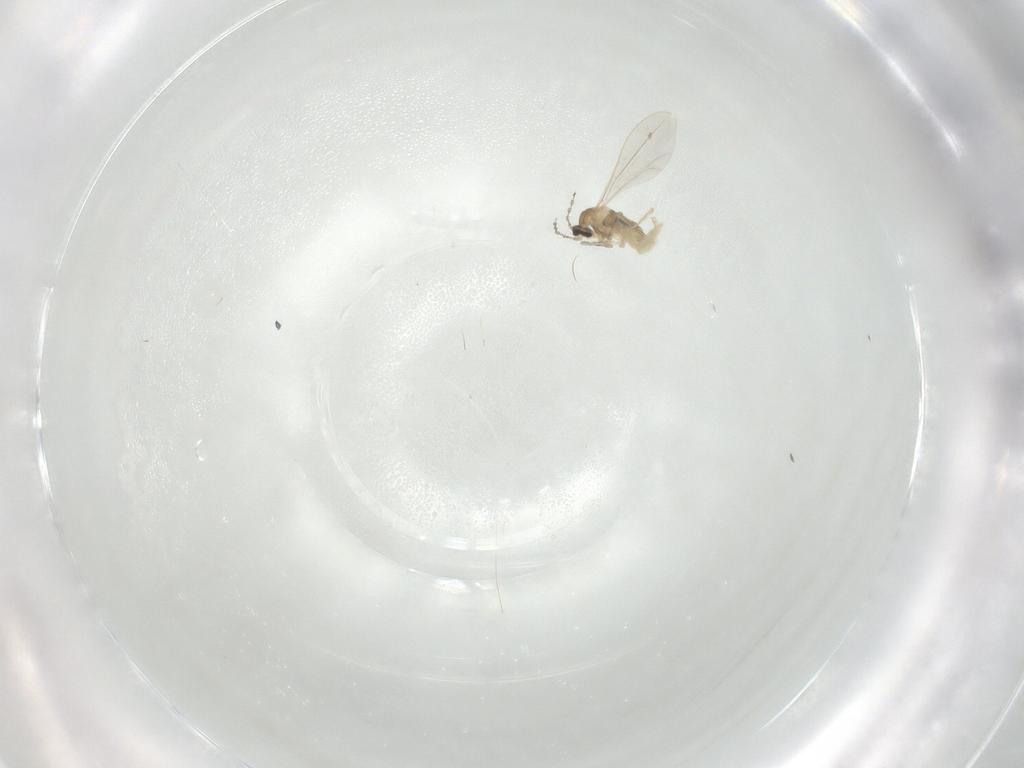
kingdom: Animalia
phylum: Arthropoda
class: Insecta
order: Diptera
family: Cecidomyiidae
